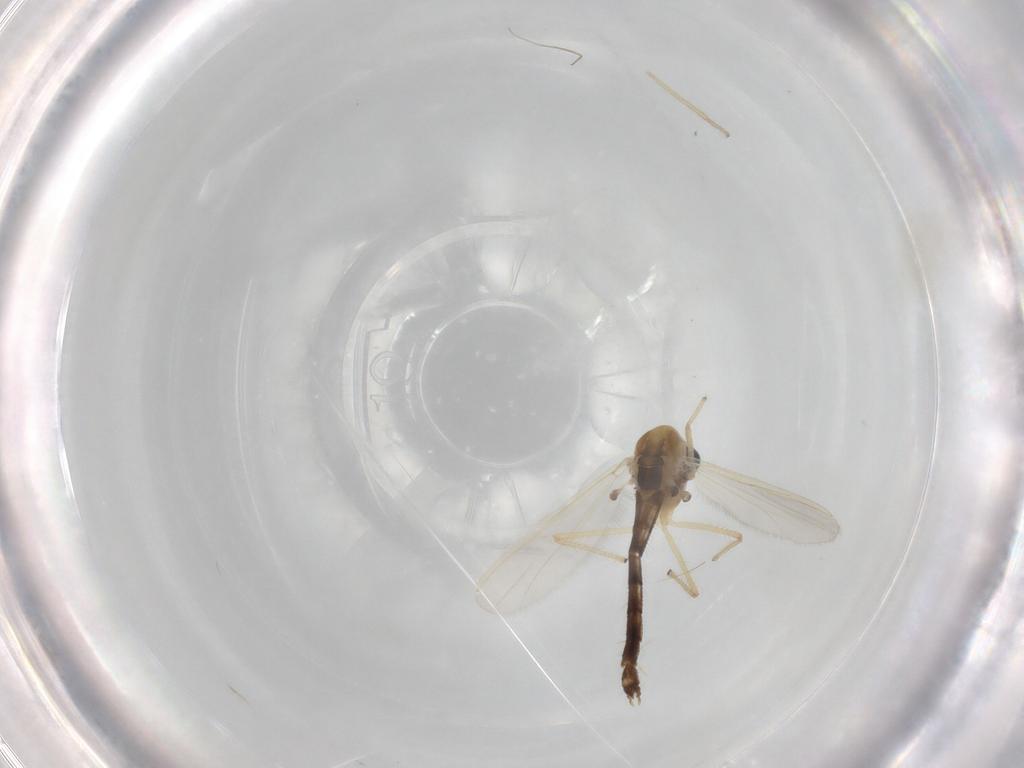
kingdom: Animalia
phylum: Arthropoda
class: Insecta
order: Diptera
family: Chironomidae
